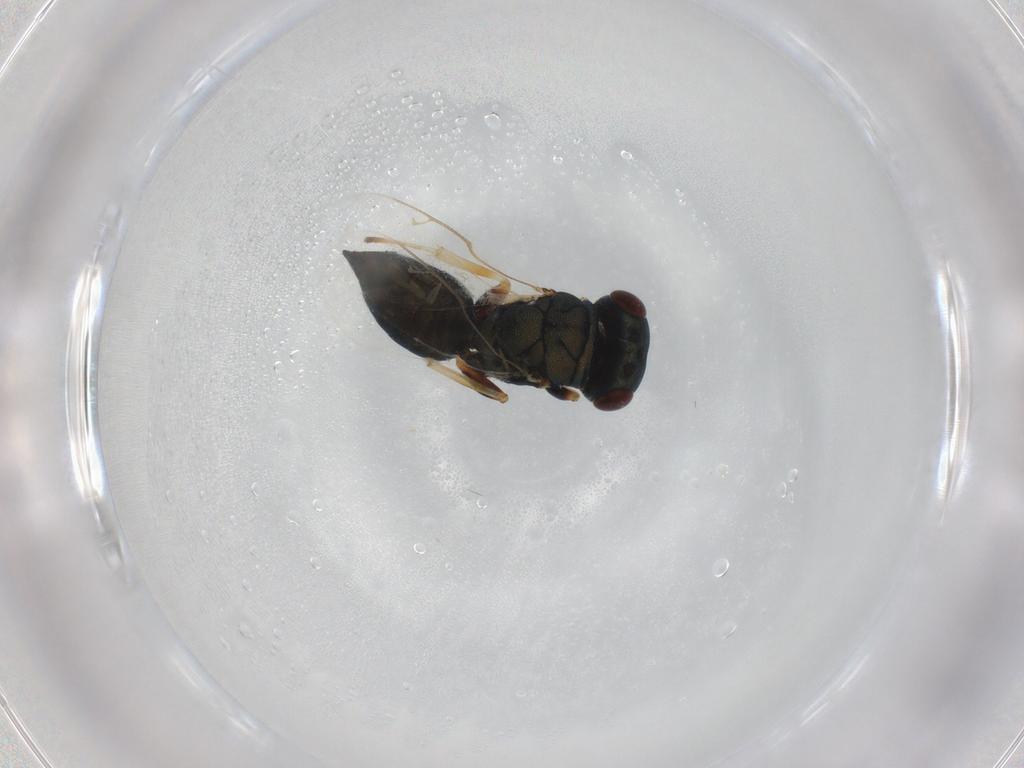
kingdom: Animalia
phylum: Arthropoda
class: Insecta
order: Hymenoptera
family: Pteromalidae
